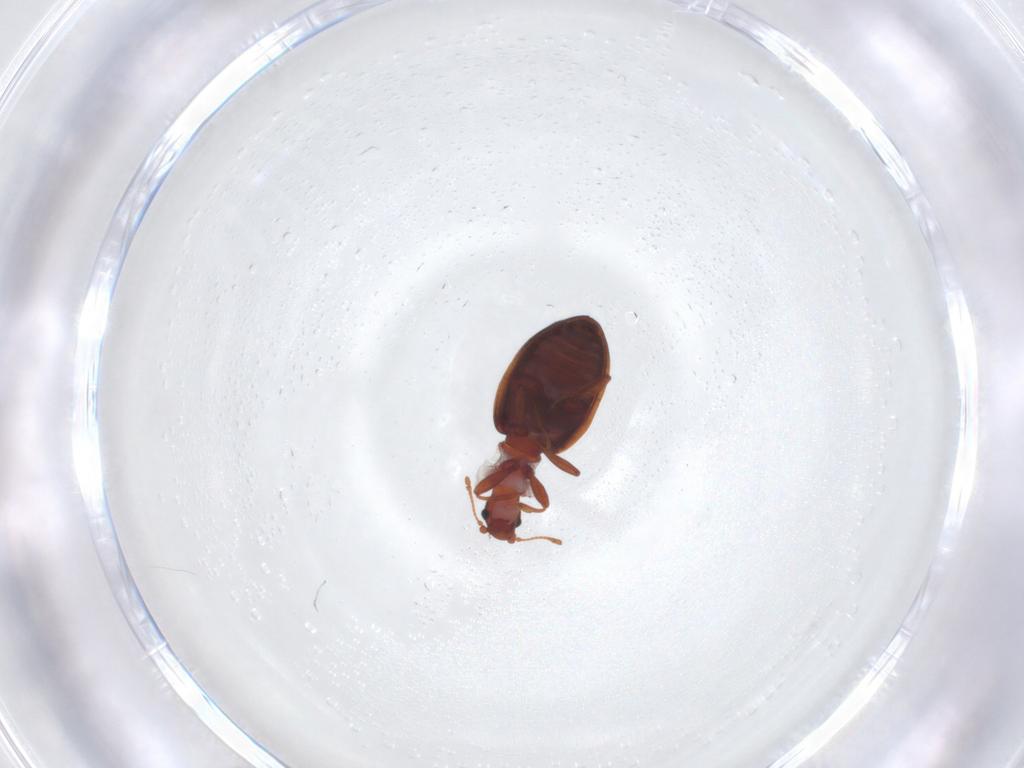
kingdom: Animalia
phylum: Arthropoda
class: Insecta
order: Coleoptera
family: Latridiidae
